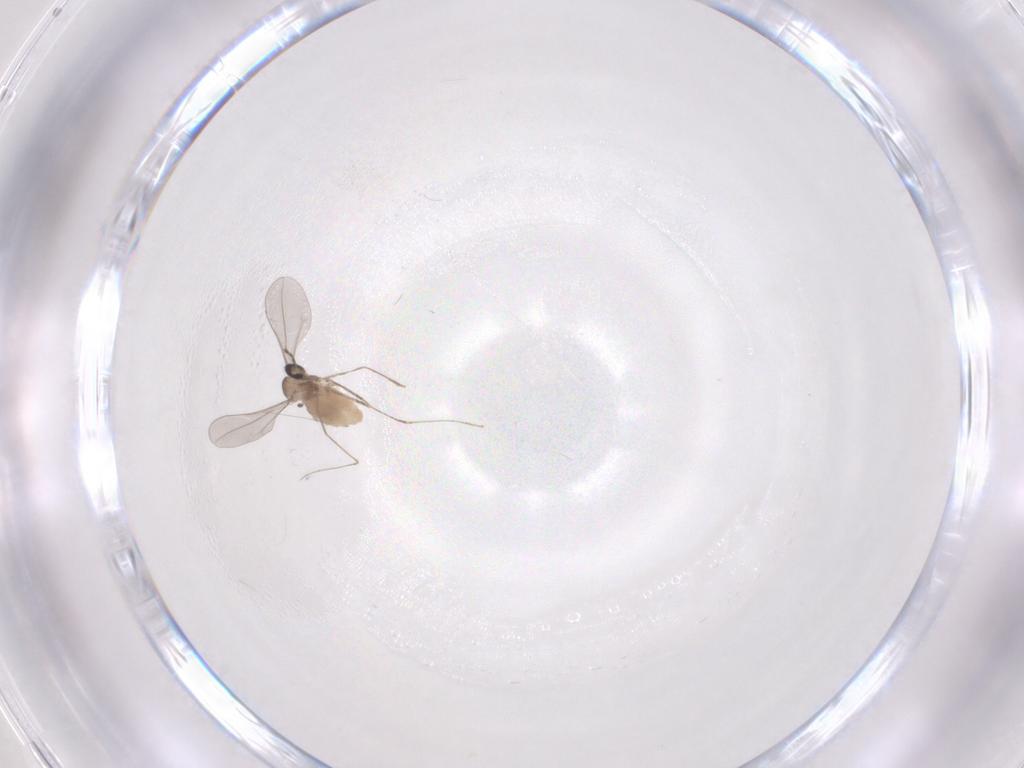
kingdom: Animalia
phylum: Arthropoda
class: Insecta
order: Diptera
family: Cecidomyiidae
